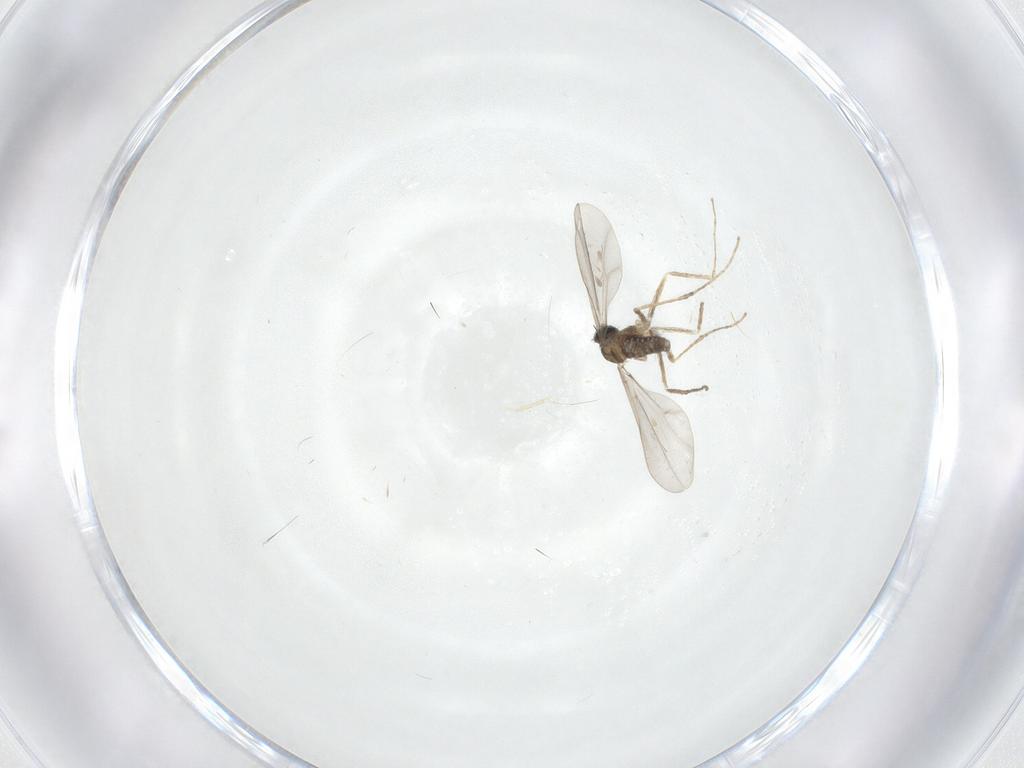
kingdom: Animalia
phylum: Arthropoda
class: Insecta
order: Diptera
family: Cecidomyiidae
